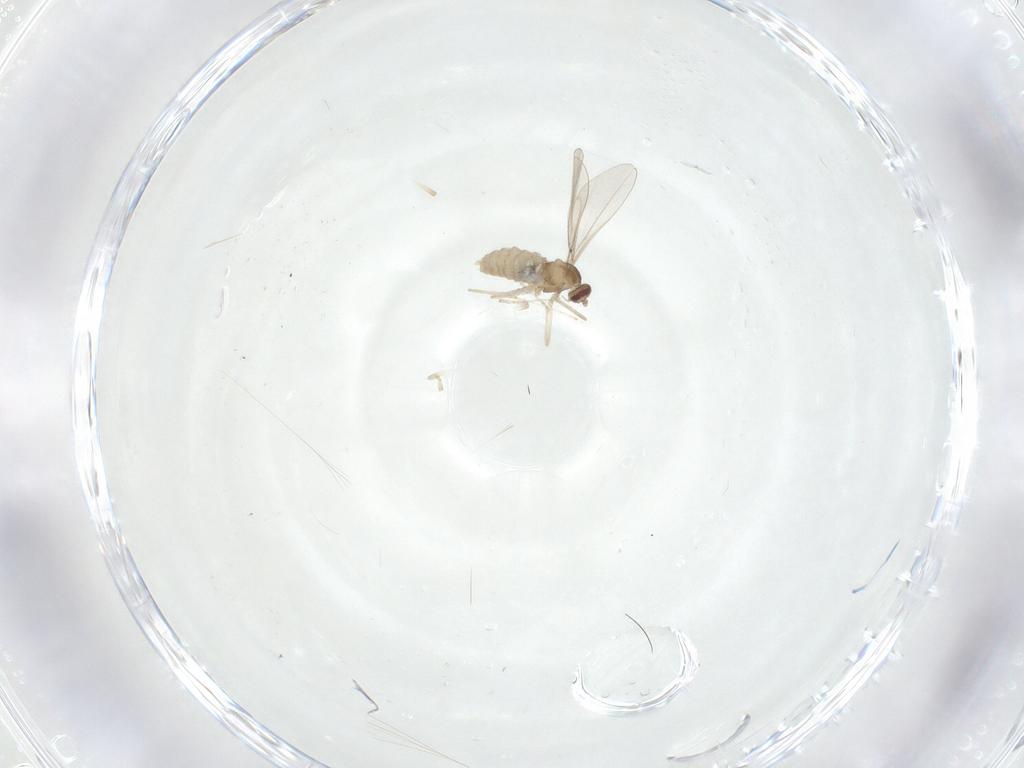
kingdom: Animalia
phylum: Arthropoda
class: Insecta
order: Diptera
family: Cecidomyiidae
